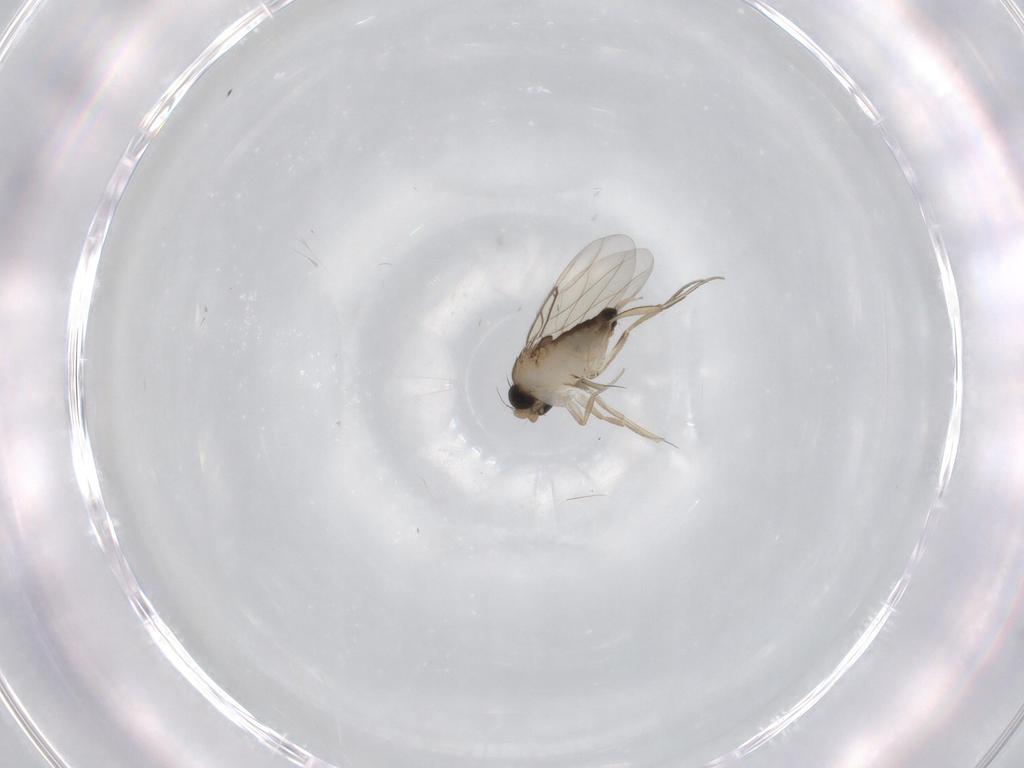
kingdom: Animalia
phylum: Arthropoda
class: Insecta
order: Diptera
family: Phoridae
